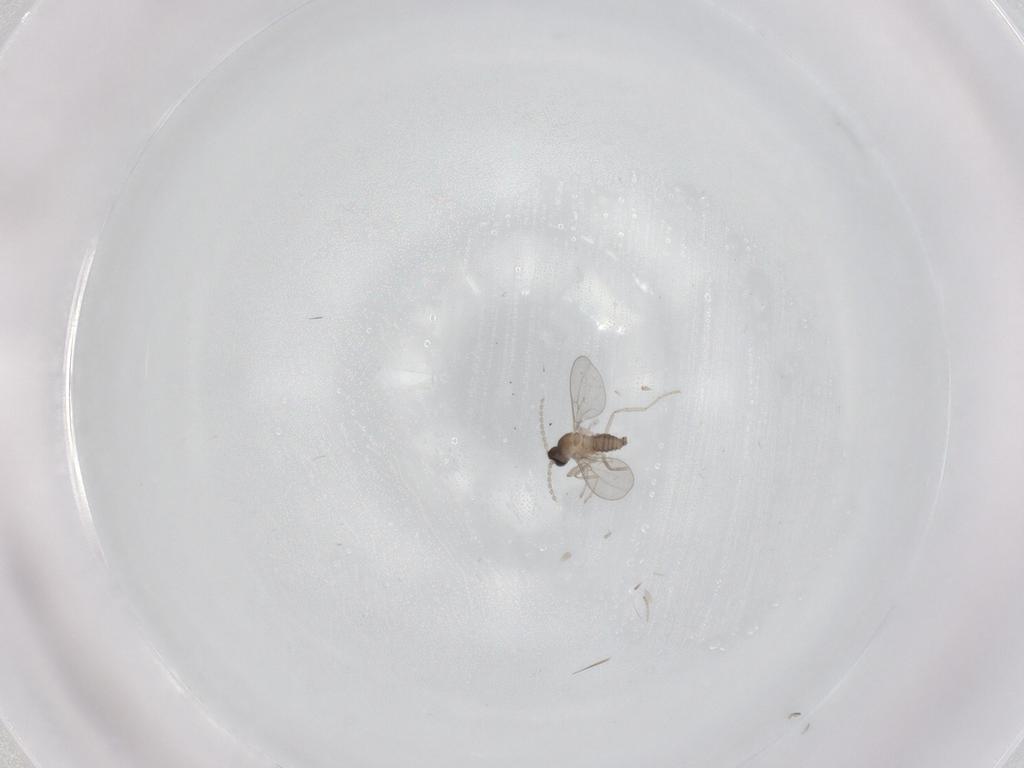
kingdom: Animalia
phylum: Arthropoda
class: Insecta
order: Diptera
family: Cecidomyiidae
